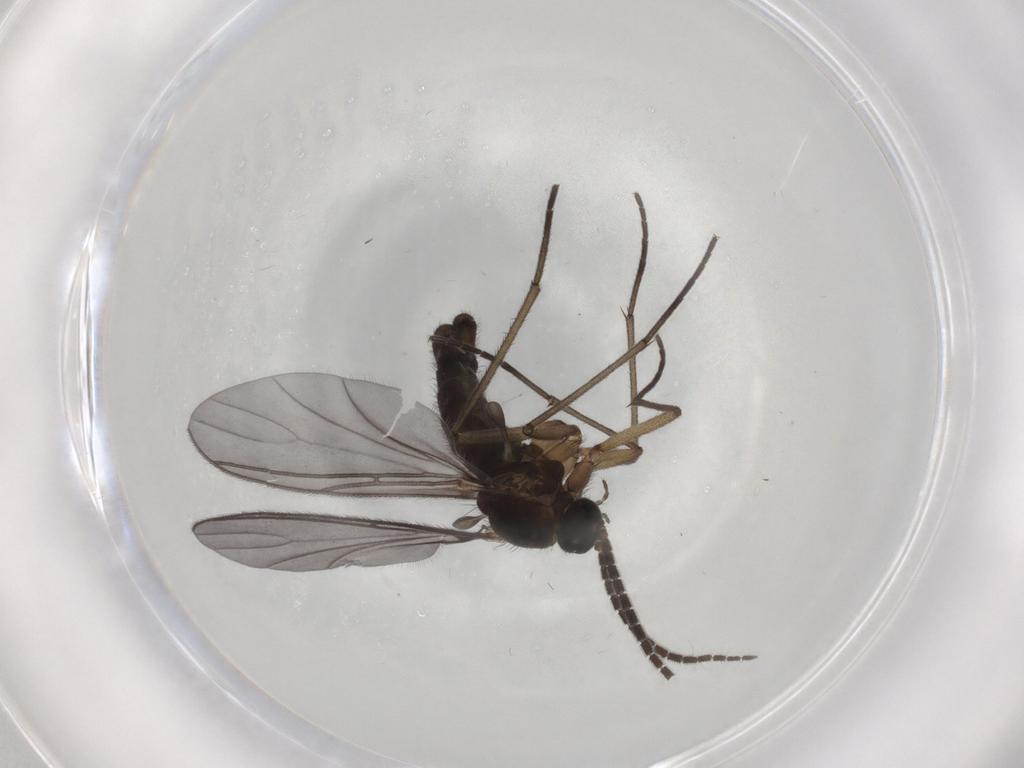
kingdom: Animalia
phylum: Arthropoda
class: Insecta
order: Diptera
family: Sciaridae
